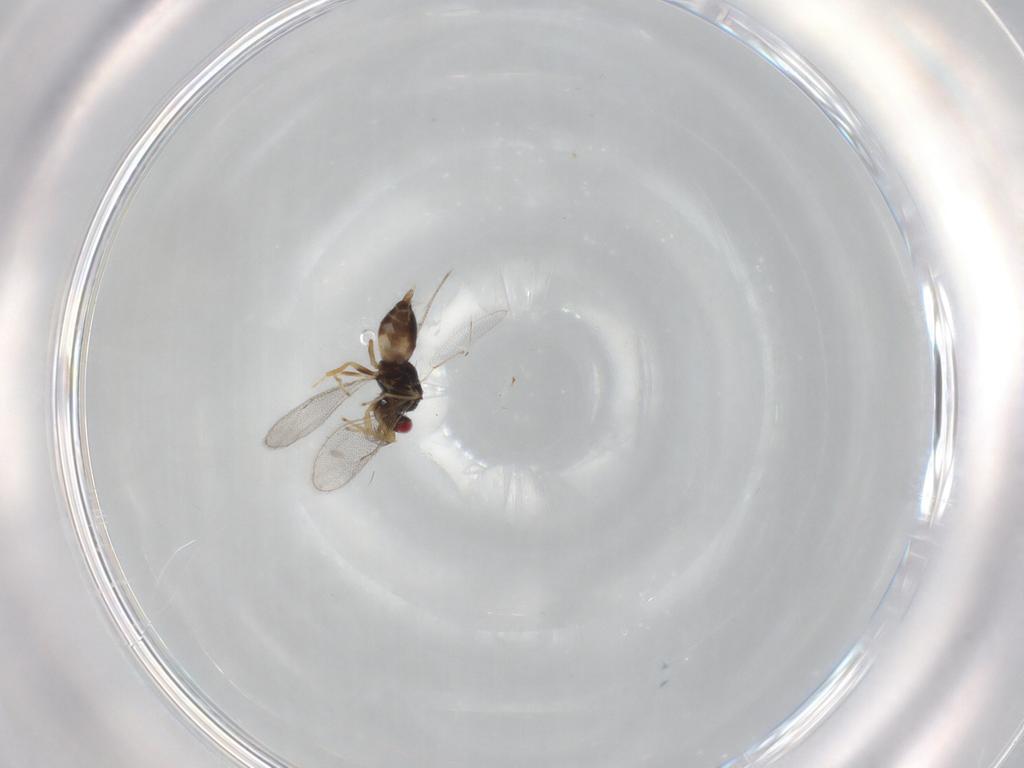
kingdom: Animalia
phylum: Arthropoda
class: Insecta
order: Hymenoptera
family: Eulophidae
